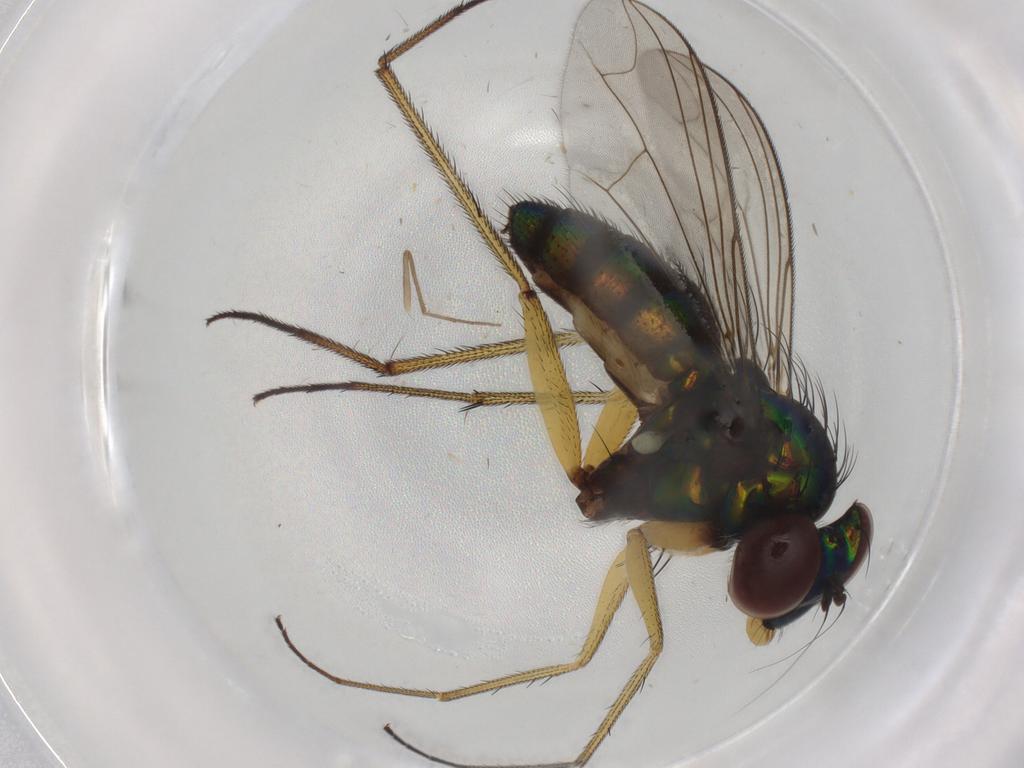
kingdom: Animalia
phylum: Arthropoda
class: Insecta
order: Diptera
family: Dolichopodidae
